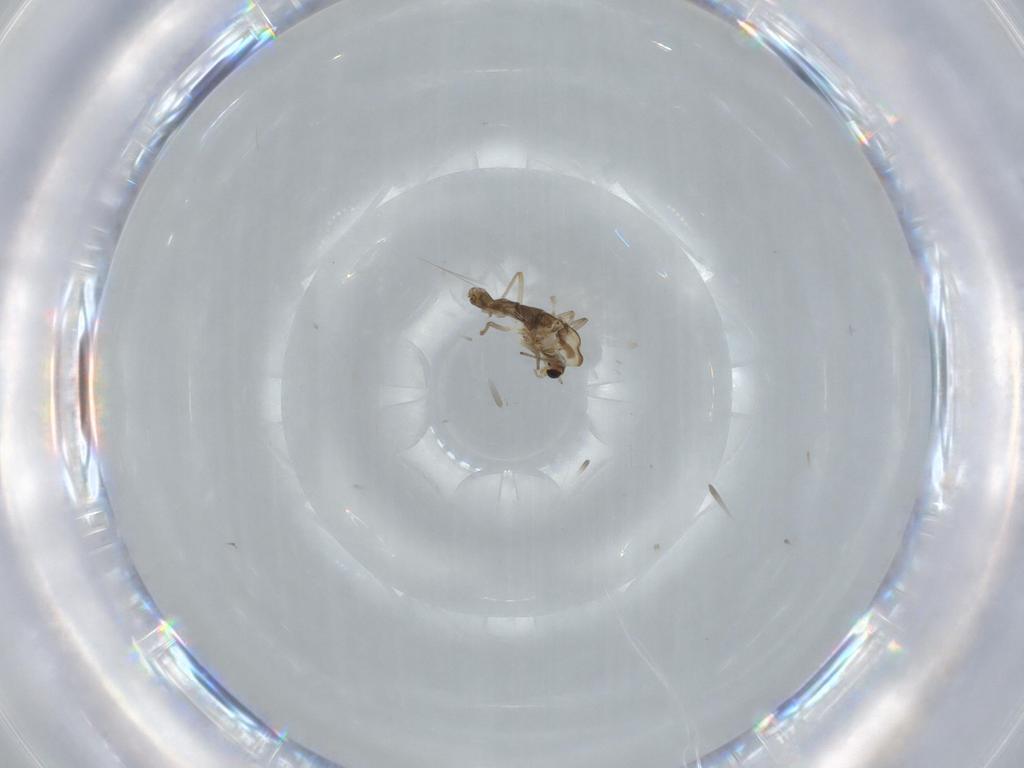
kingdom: Animalia
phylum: Arthropoda
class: Insecta
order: Diptera
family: Chironomidae
